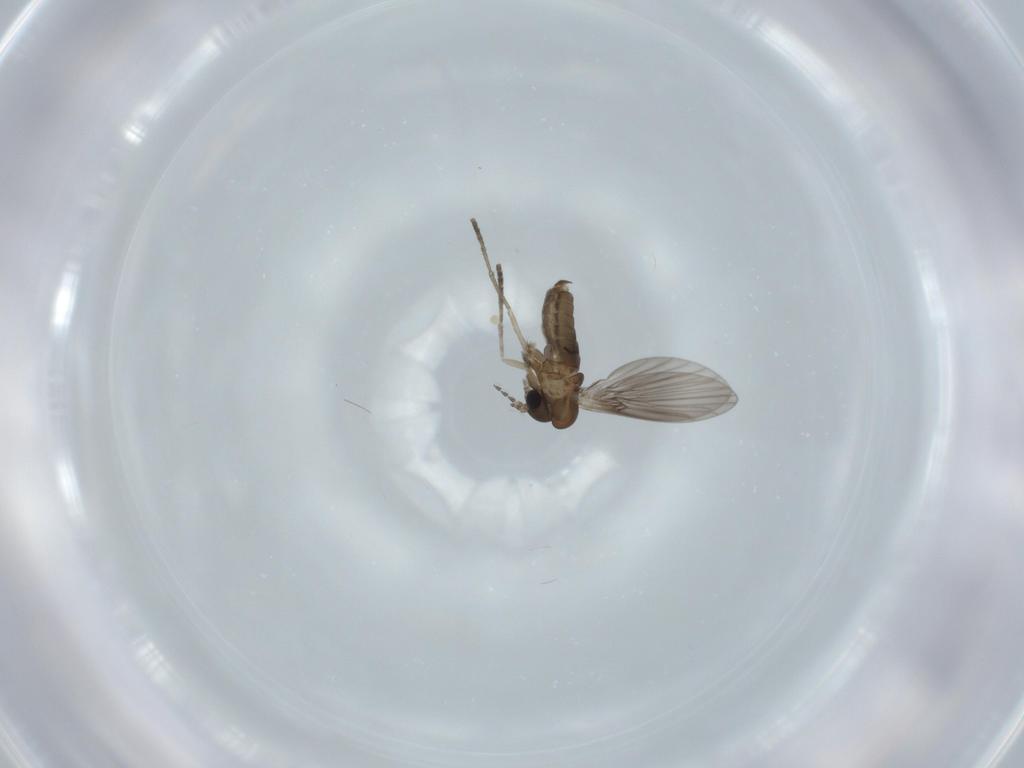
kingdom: Animalia
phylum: Arthropoda
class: Insecta
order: Diptera
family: Psychodidae
